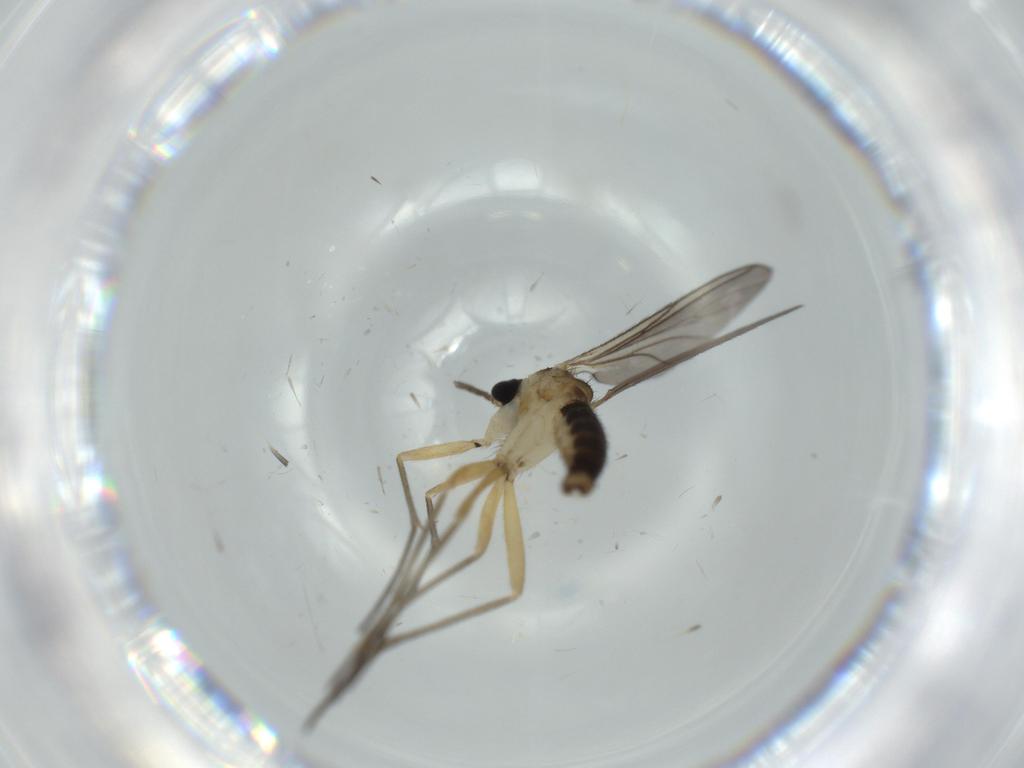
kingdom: Animalia
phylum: Arthropoda
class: Insecta
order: Diptera
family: Sciaridae
